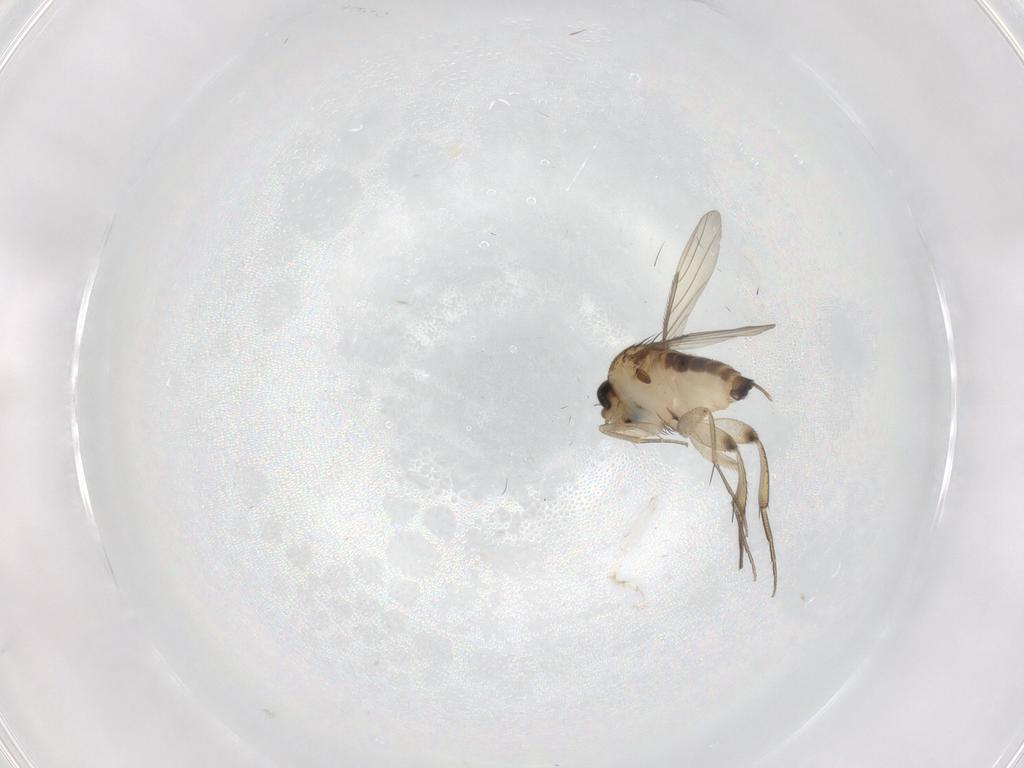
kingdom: Animalia
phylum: Arthropoda
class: Insecta
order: Diptera
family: Phoridae
